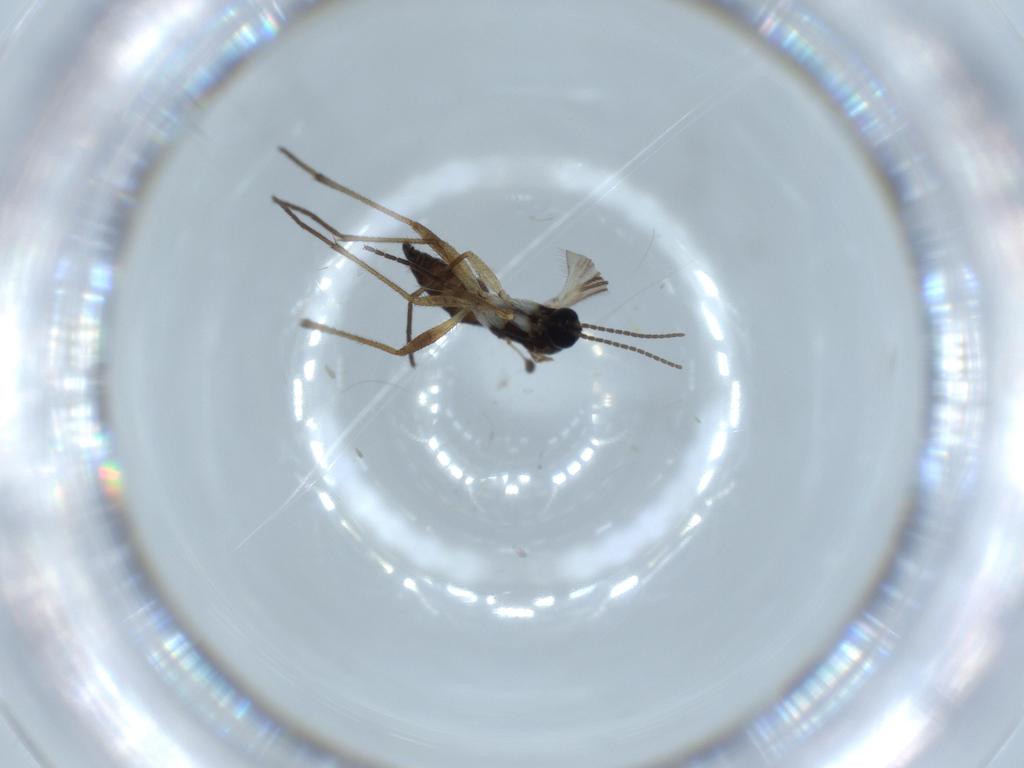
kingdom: Animalia
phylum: Arthropoda
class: Insecta
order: Diptera
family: Sciaridae
